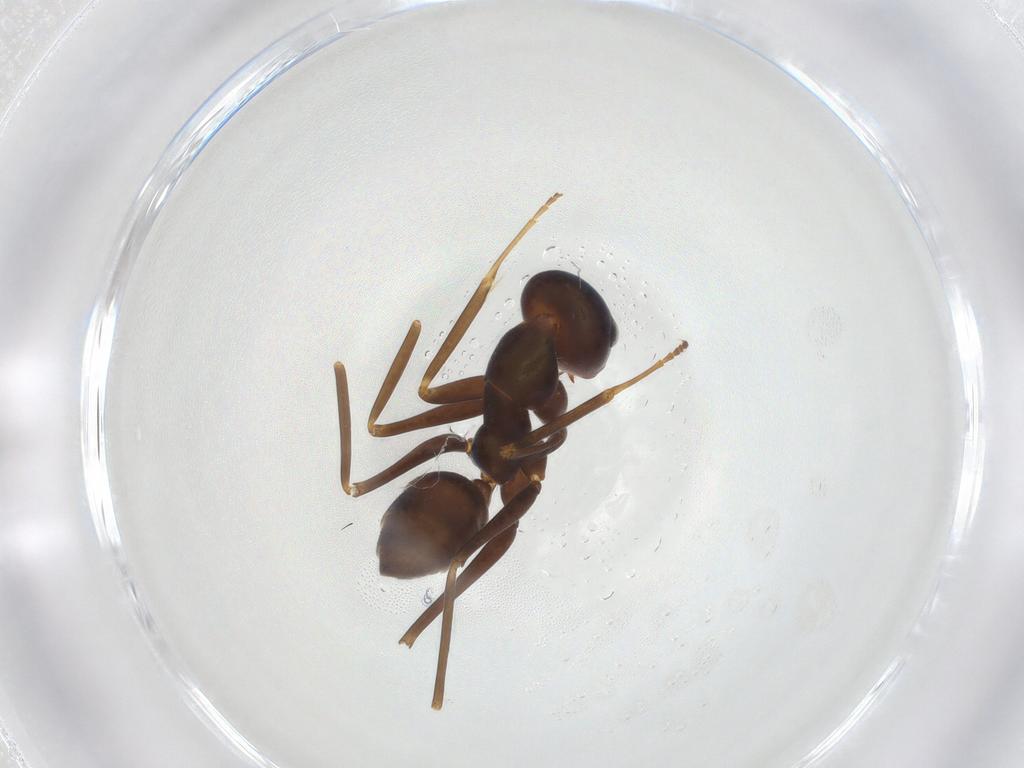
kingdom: Animalia
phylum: Arthropoda
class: Insecta
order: Hymenoptera
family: Formicidae
